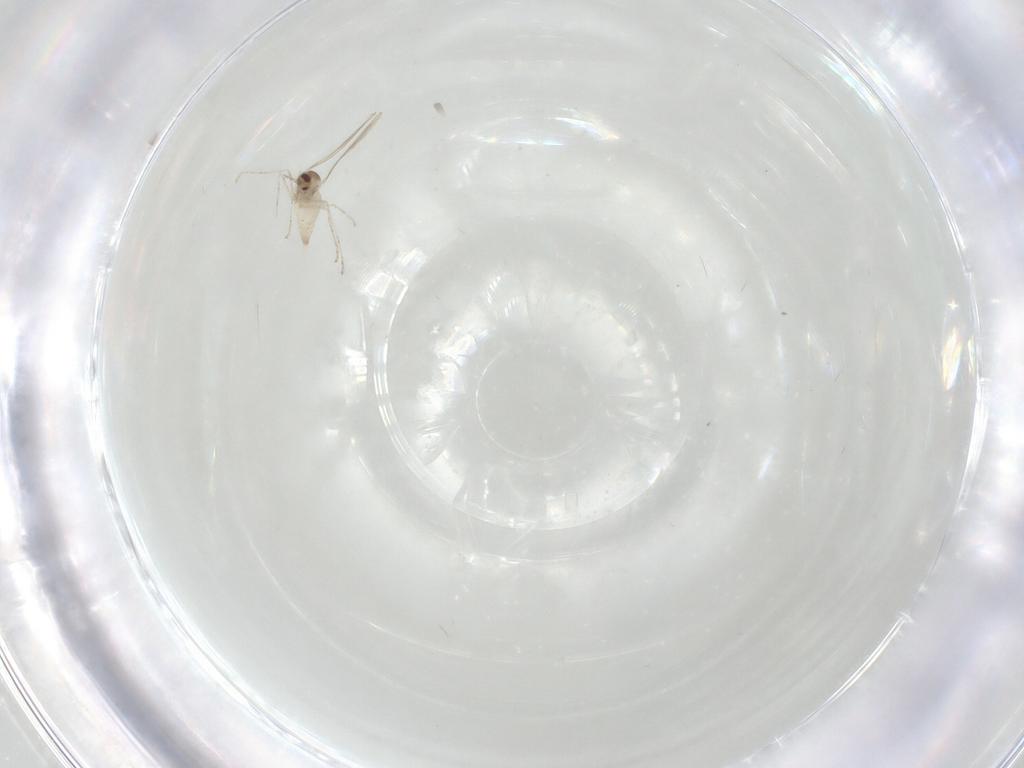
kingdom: Animalia
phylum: Arthropoda
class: Insecta
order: Diptera
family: Cecidomyiidae
